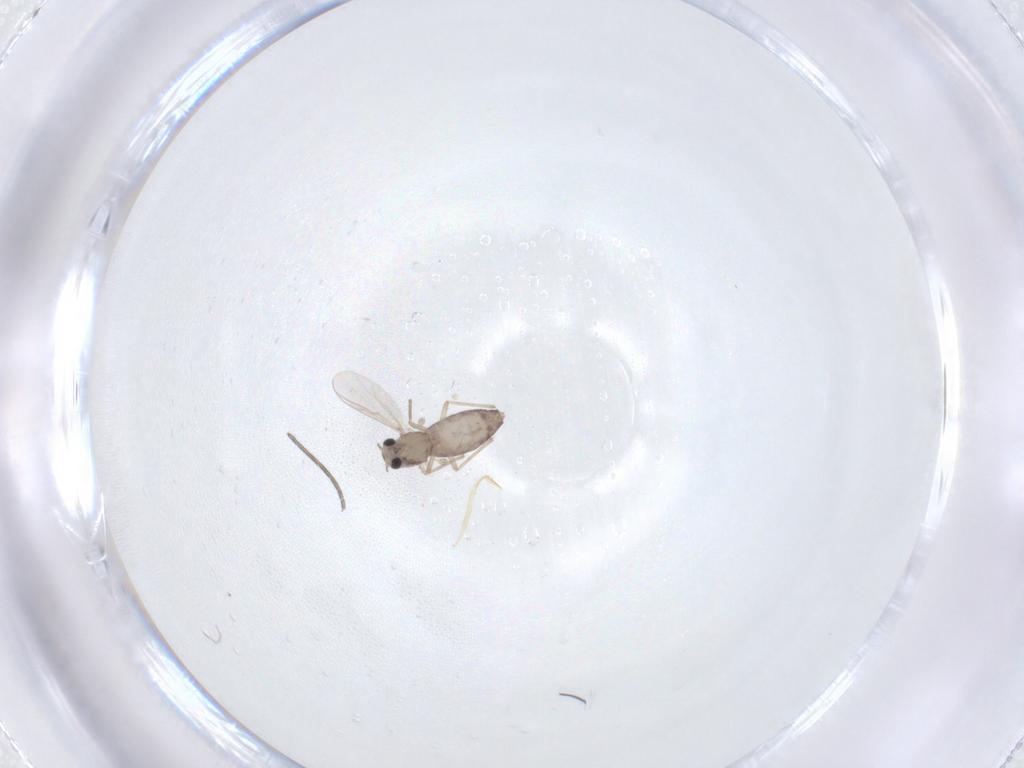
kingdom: Animalia
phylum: Arthropoda
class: Insecta
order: Diptera
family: Chironomidae
